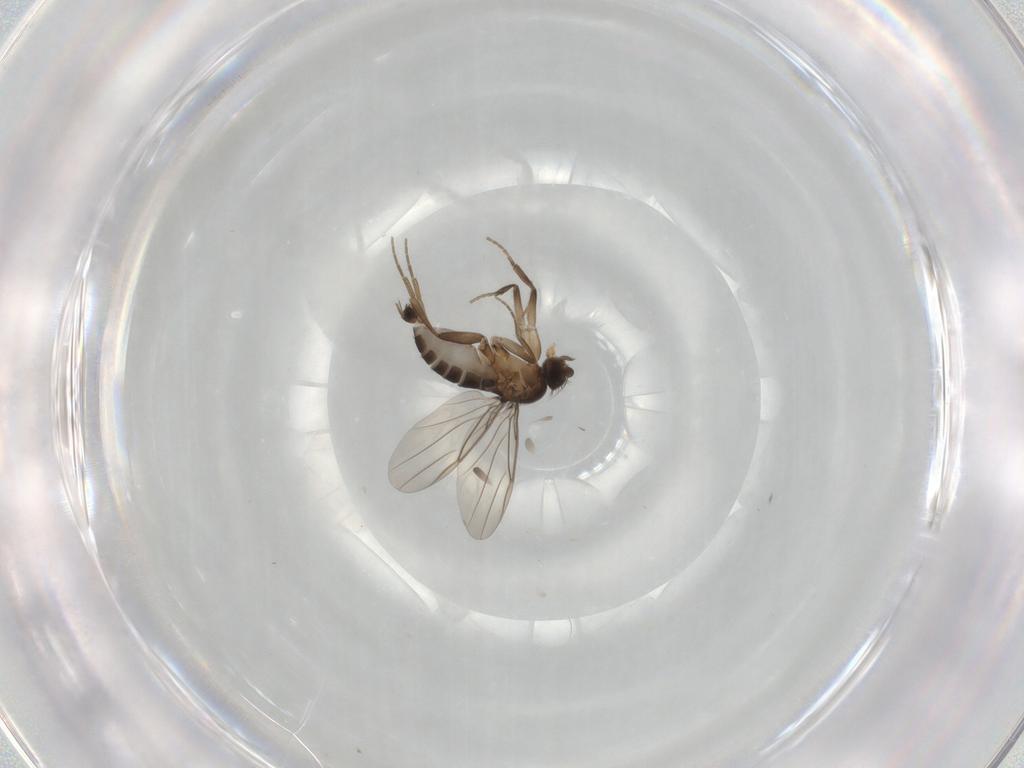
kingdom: Animalia
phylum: Arthropoda
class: Insecta
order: Diptera
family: Phoridae
